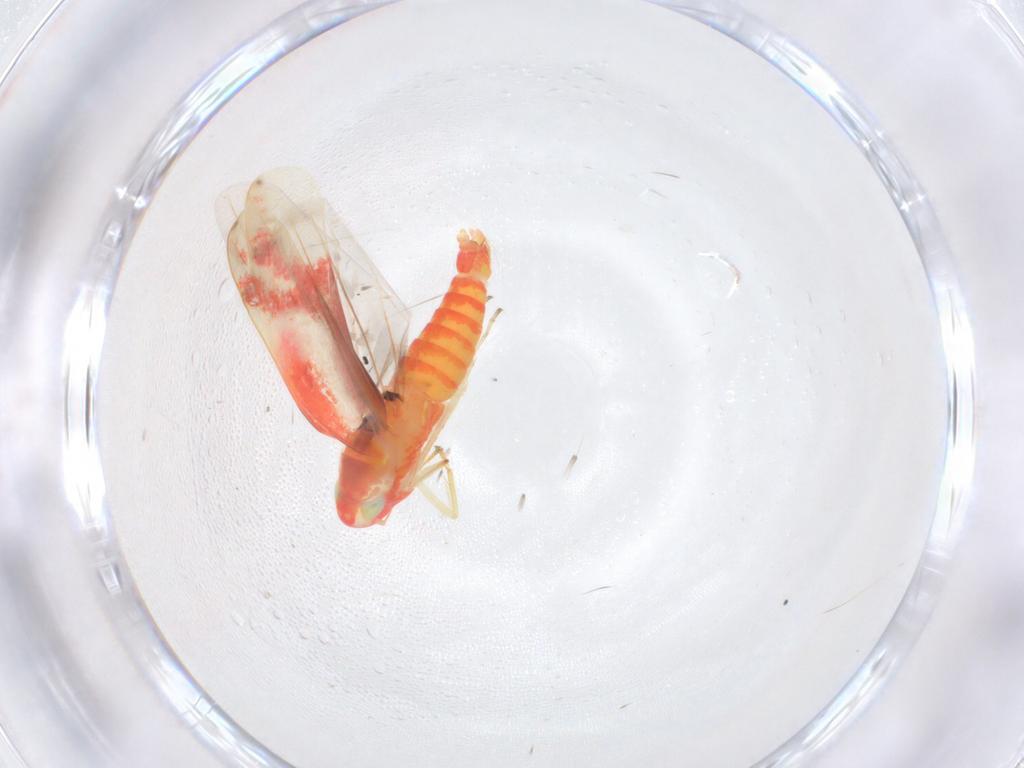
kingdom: Animalia
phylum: Arthropoda
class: Insecta
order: Hemiptera
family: Cicadellidae
